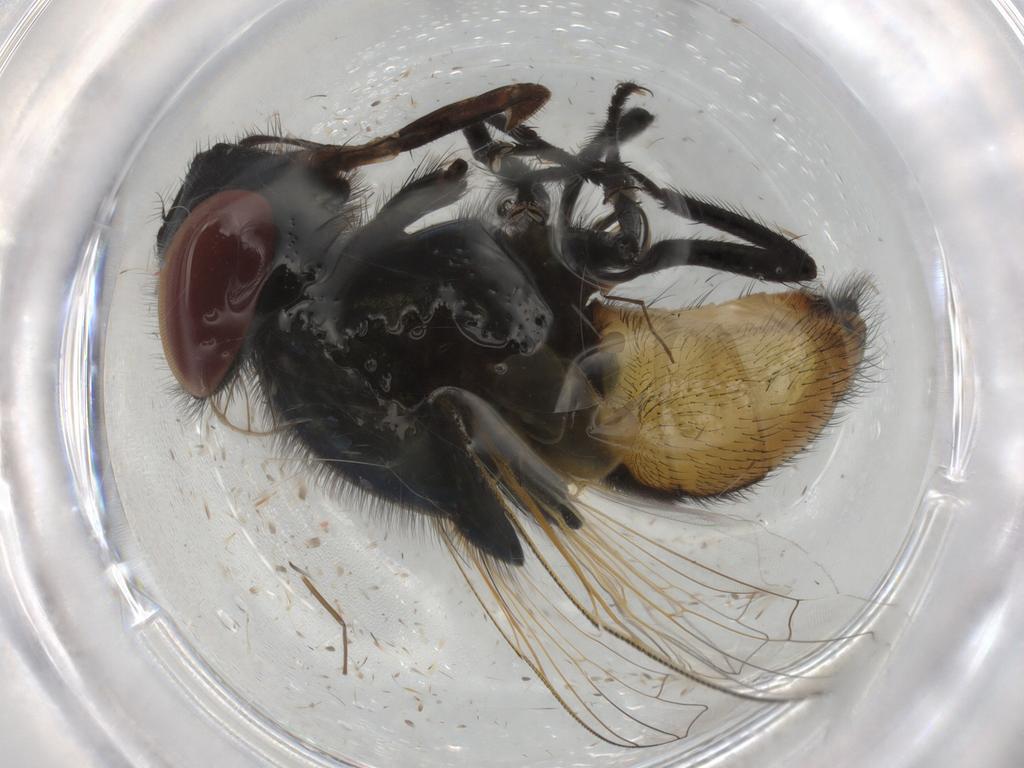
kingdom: Animalia
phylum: Arthropoda
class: Insecta
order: Diptera
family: Muscidae
